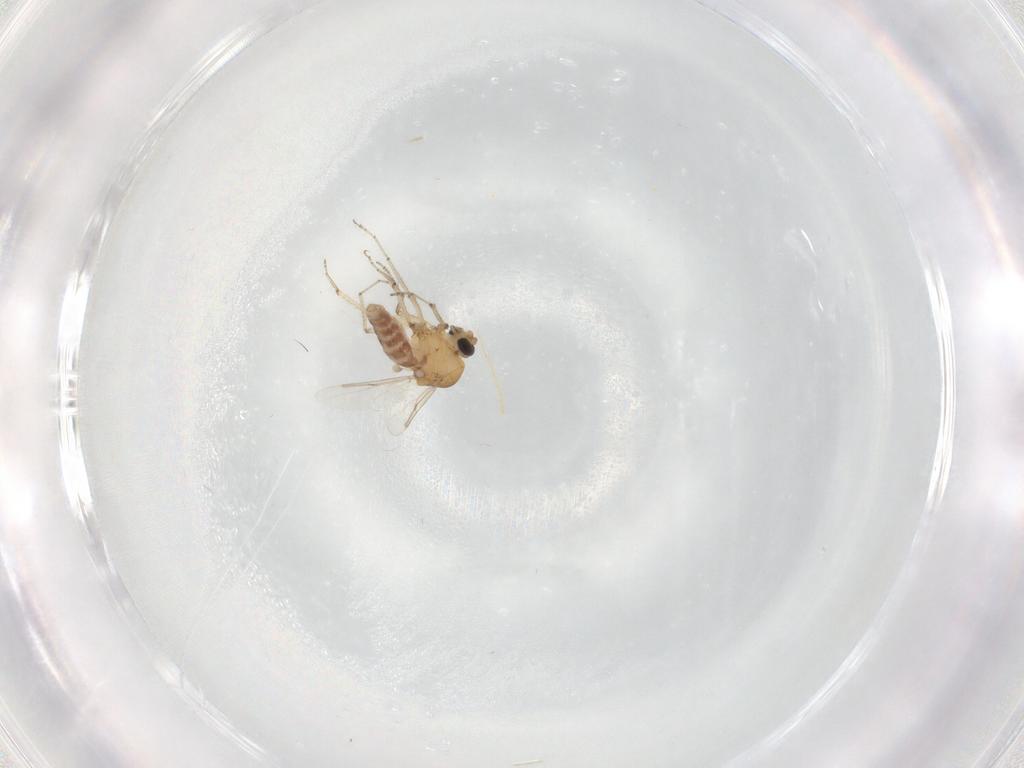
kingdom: Animalia
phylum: Arthropoda
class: Insecta
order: Diptera
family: Ceratopogonidae
